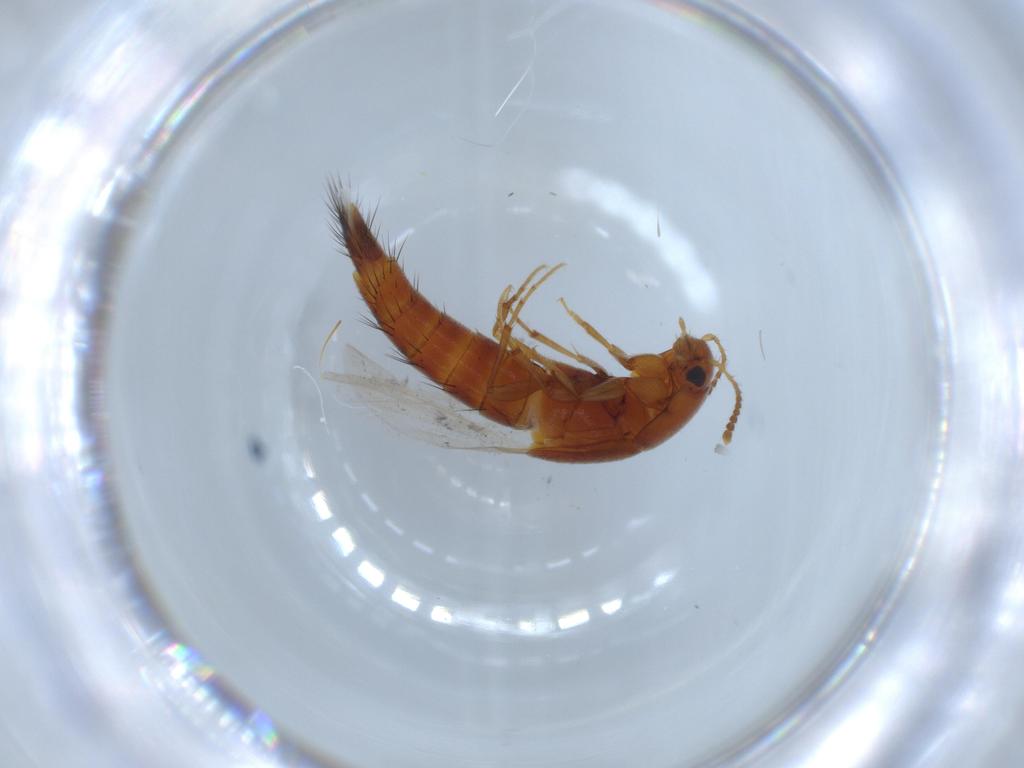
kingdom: Animalia
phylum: Arthropoda
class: Insecta
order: Coleoptera
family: Staphylinidae
